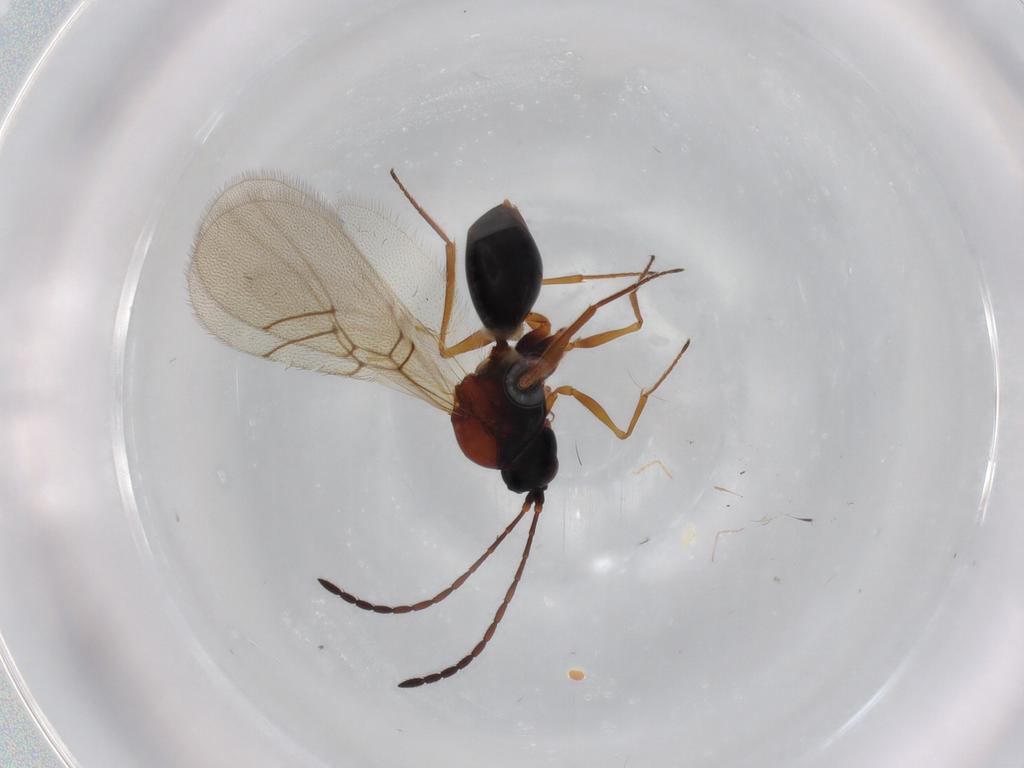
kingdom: Animalia
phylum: Arthropoda
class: Insecta
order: Hymenoptera
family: Figitidae
